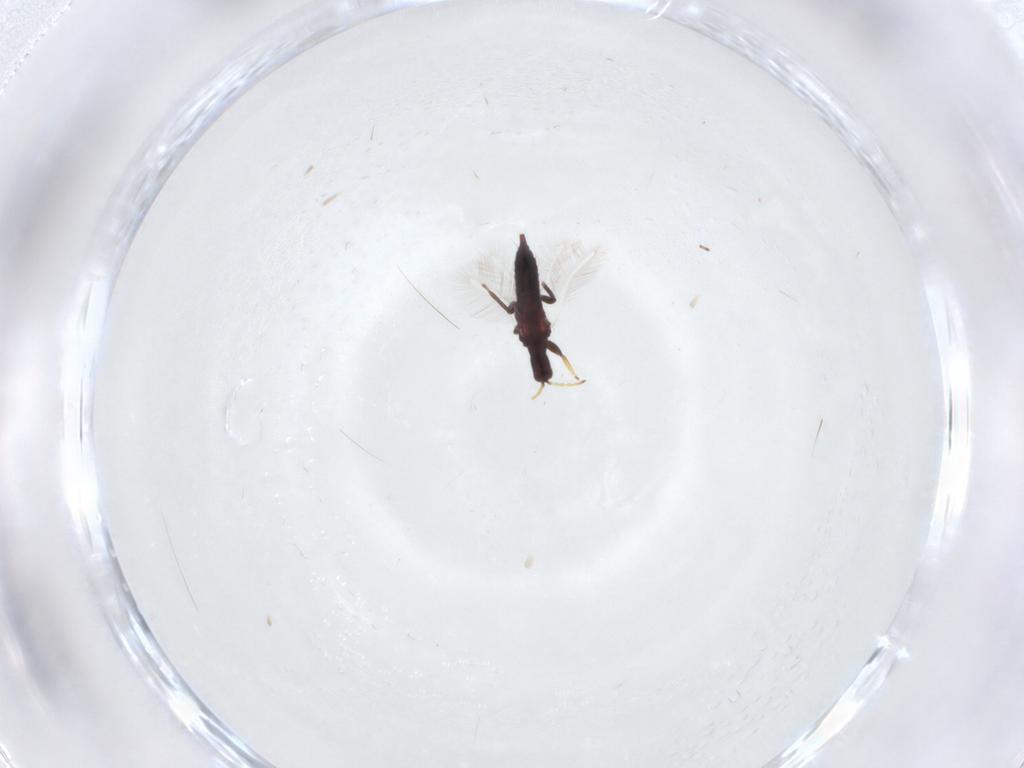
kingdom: Animalia
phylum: Arthropoda
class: Insecta
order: Thysanoptera
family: Phlaeothripidae
